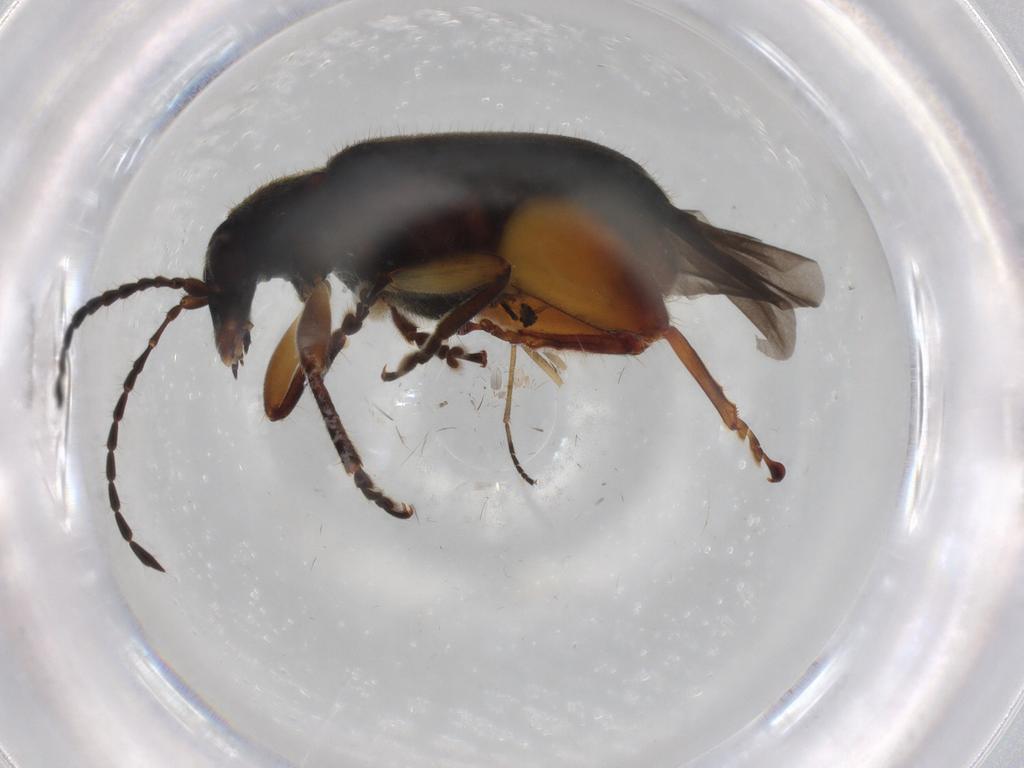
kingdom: Animalia
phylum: Arthropoda
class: Insecta
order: Coleoptera
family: Chrysomelidae
